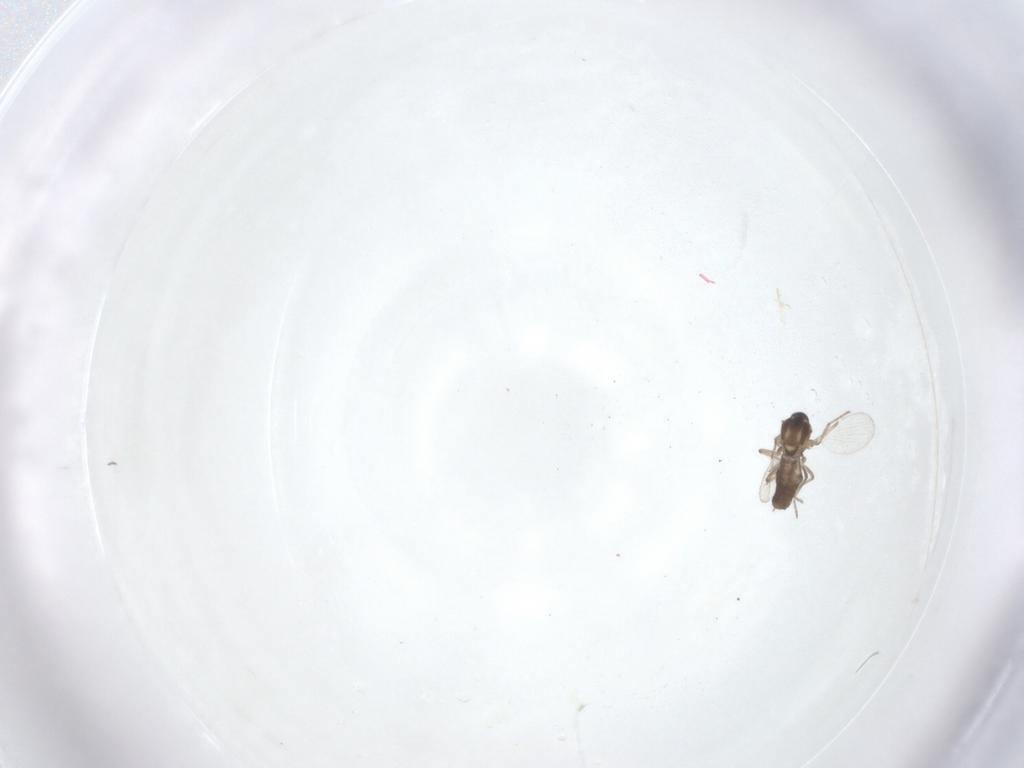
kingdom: Animalia
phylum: Arthropoda
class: Insecta
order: Diptera
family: Ceratopogonidae
